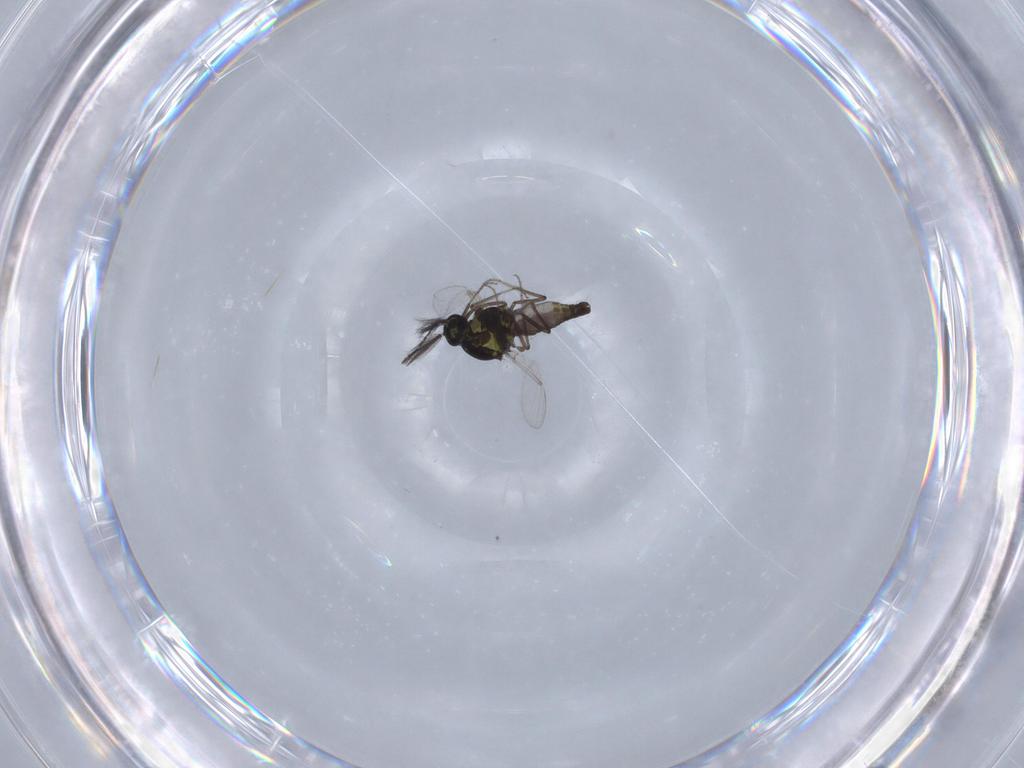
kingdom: Animalia
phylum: Arthropoda
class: Insecta
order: Diptera
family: Ceratopogonidae
